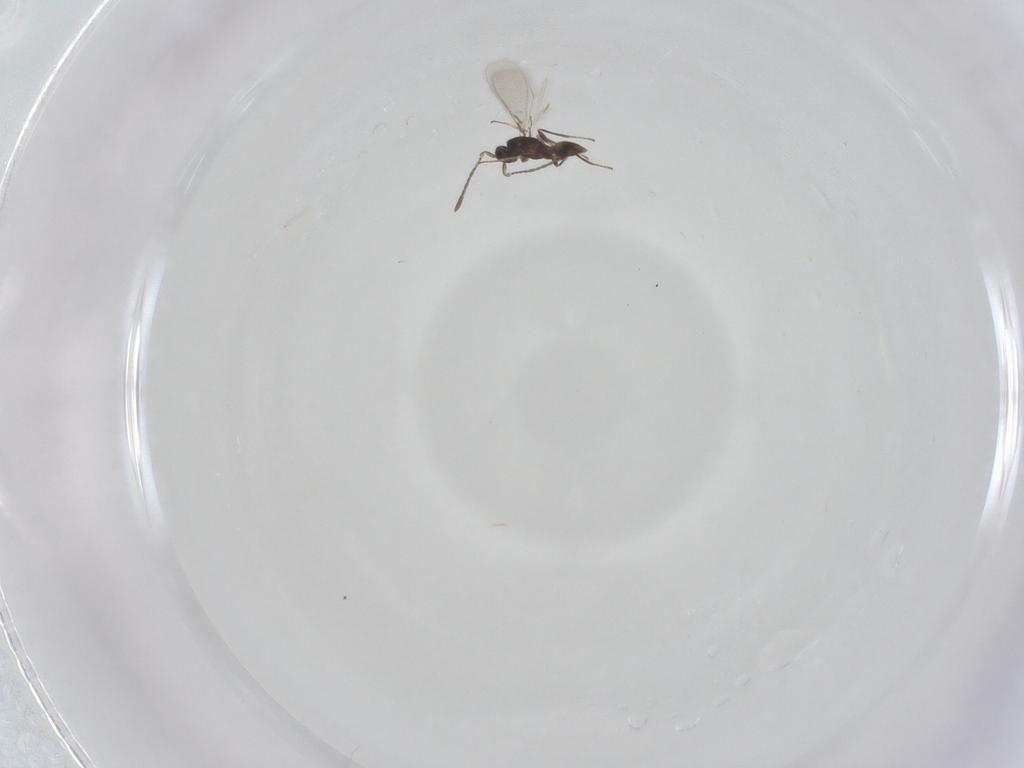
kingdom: Animalia
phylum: Arthropoda
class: Insecta
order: Hymenoptera
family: Mymaridae
